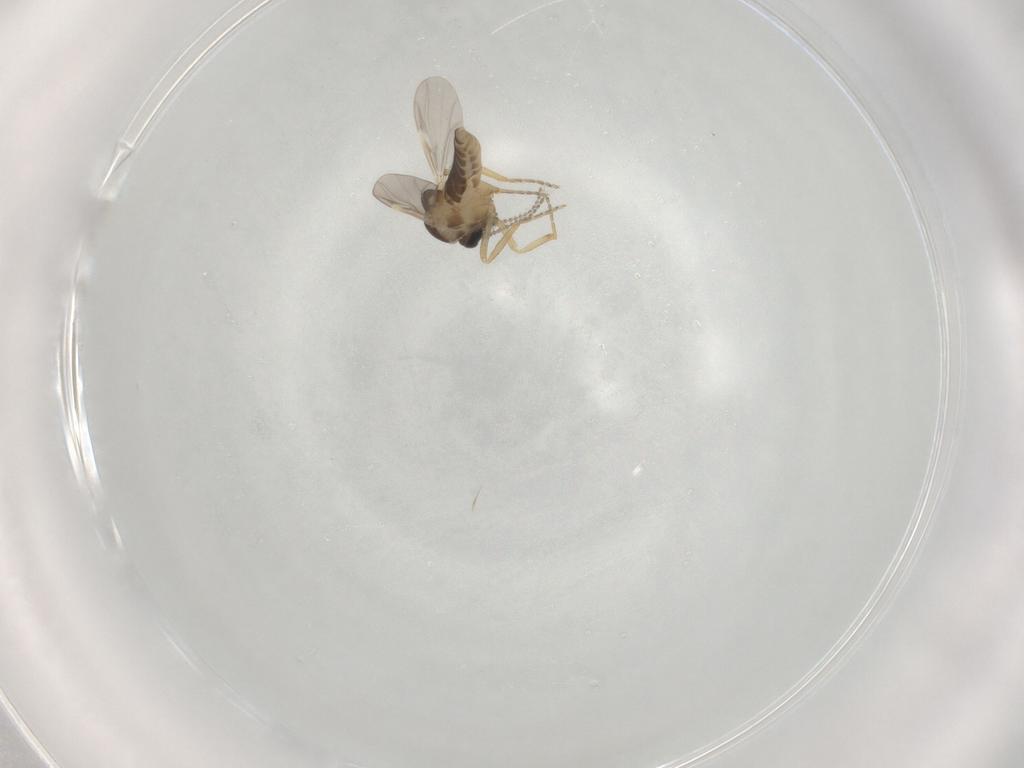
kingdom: Animalia
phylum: Arthropoda
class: Insecta
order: Diptera
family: Ceratopogonidae
